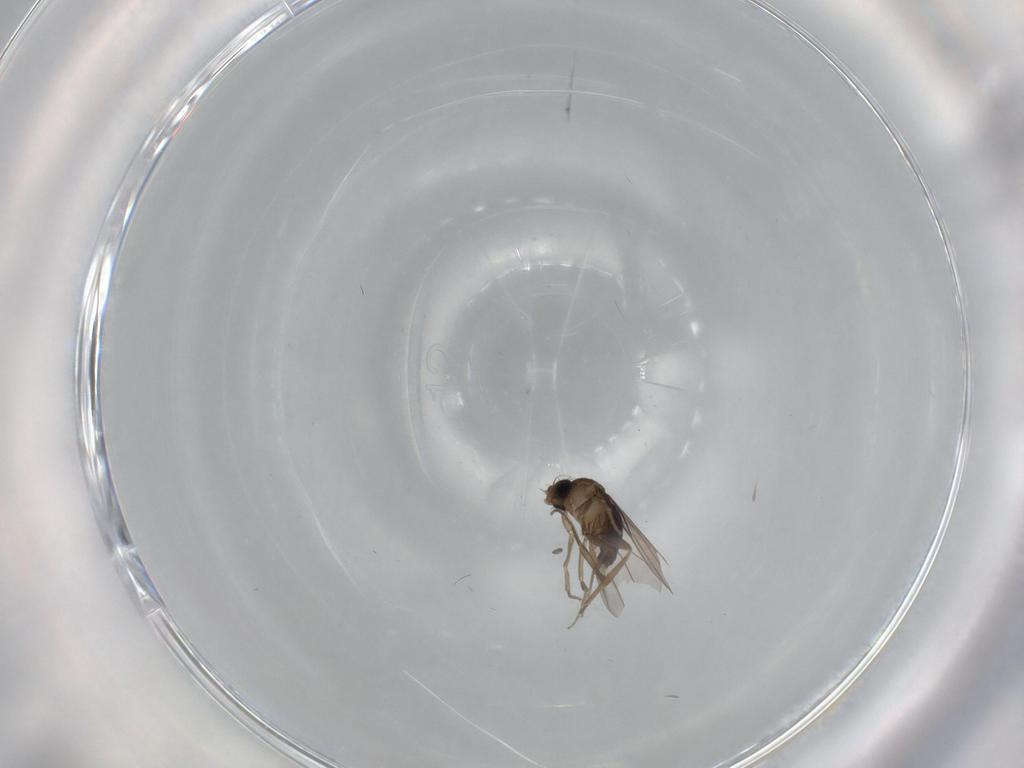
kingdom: Animalia
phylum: Arthropoda
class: Insecta
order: Diptera
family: Phoridae
